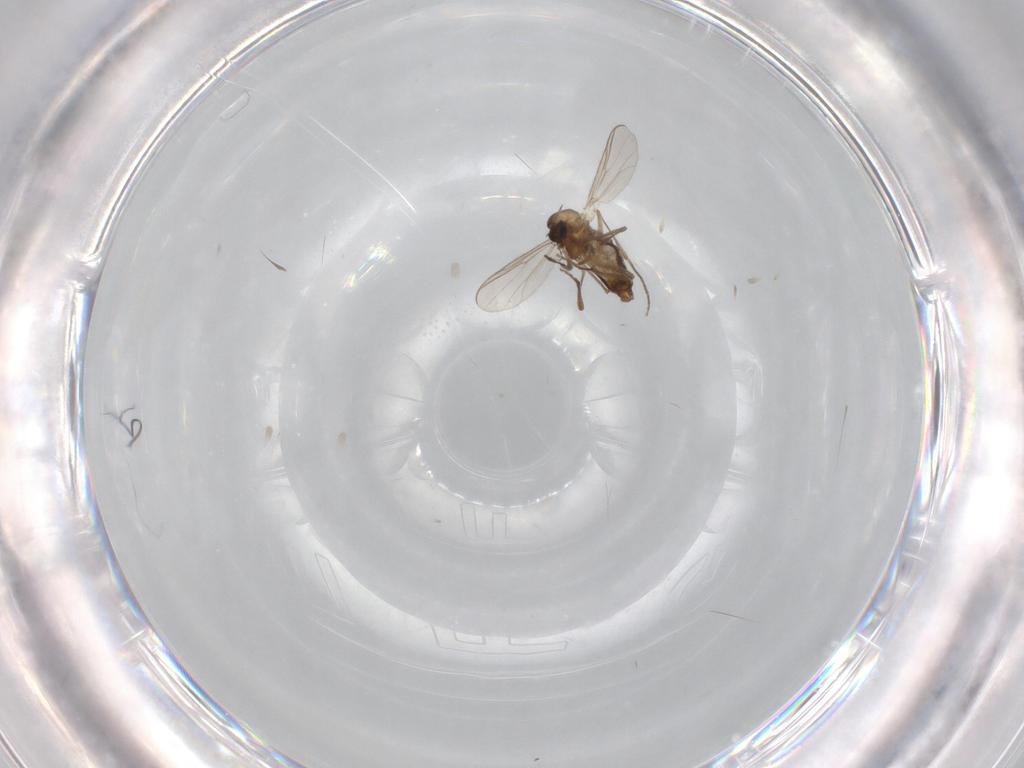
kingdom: Animalia
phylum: Arthropoda
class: Insecta
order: Diptera
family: Chironomidae
